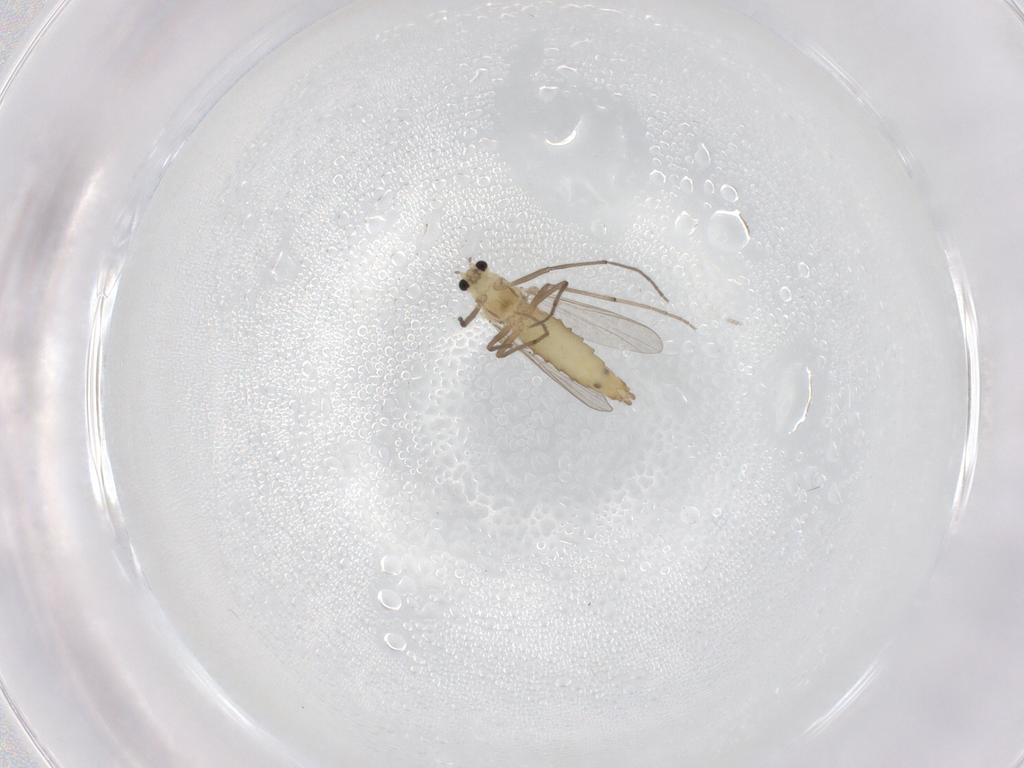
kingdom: Animalia
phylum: Arthropoda
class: Insecta
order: Diptera
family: Chironomidae
